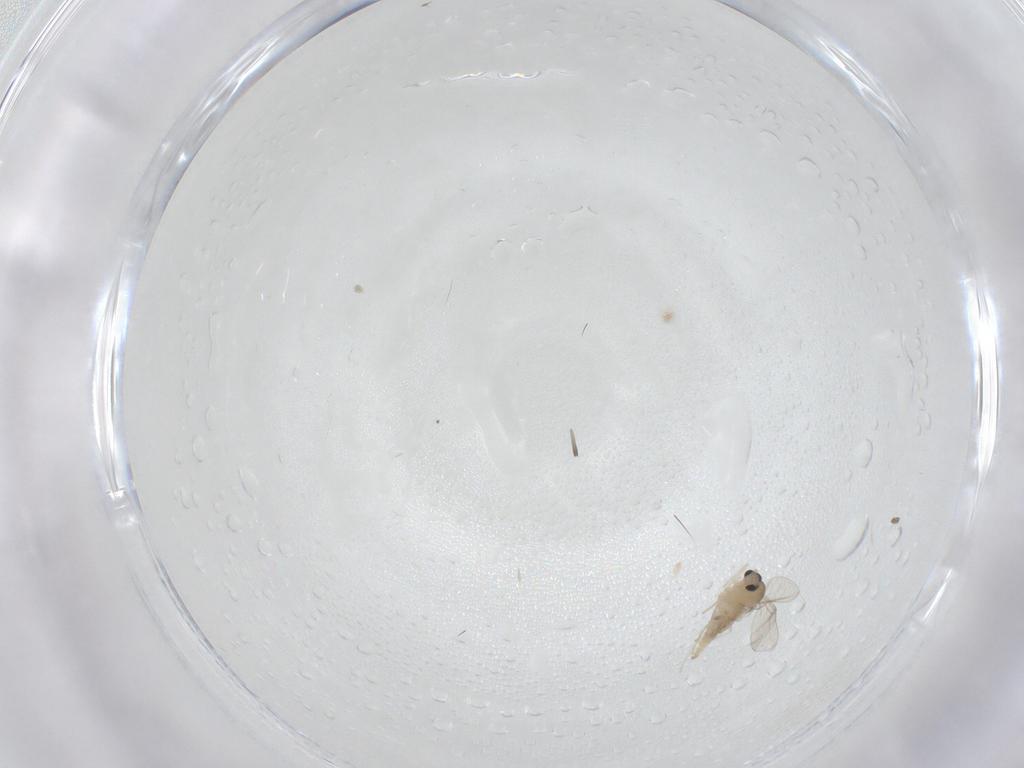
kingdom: Animalia
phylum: Arthropoda
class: Insecta
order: Diptera
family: Cecidomyiidae
